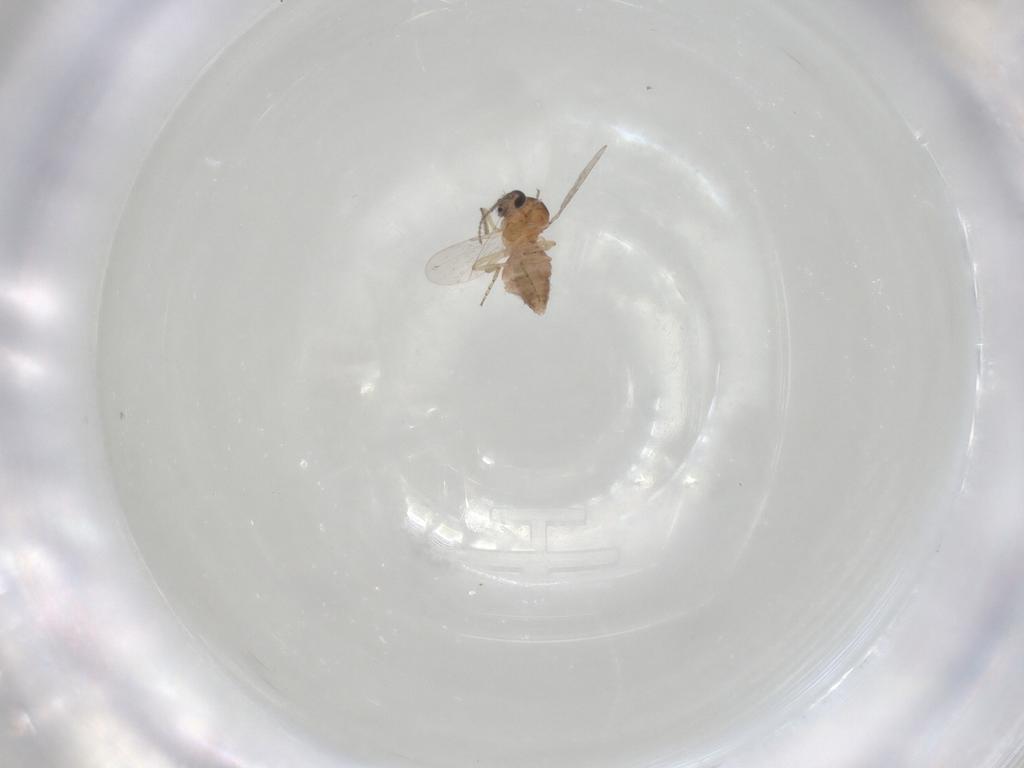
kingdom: Animalia
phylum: Arthropoda
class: Insecta
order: Diptera
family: Ceratopogonidae
